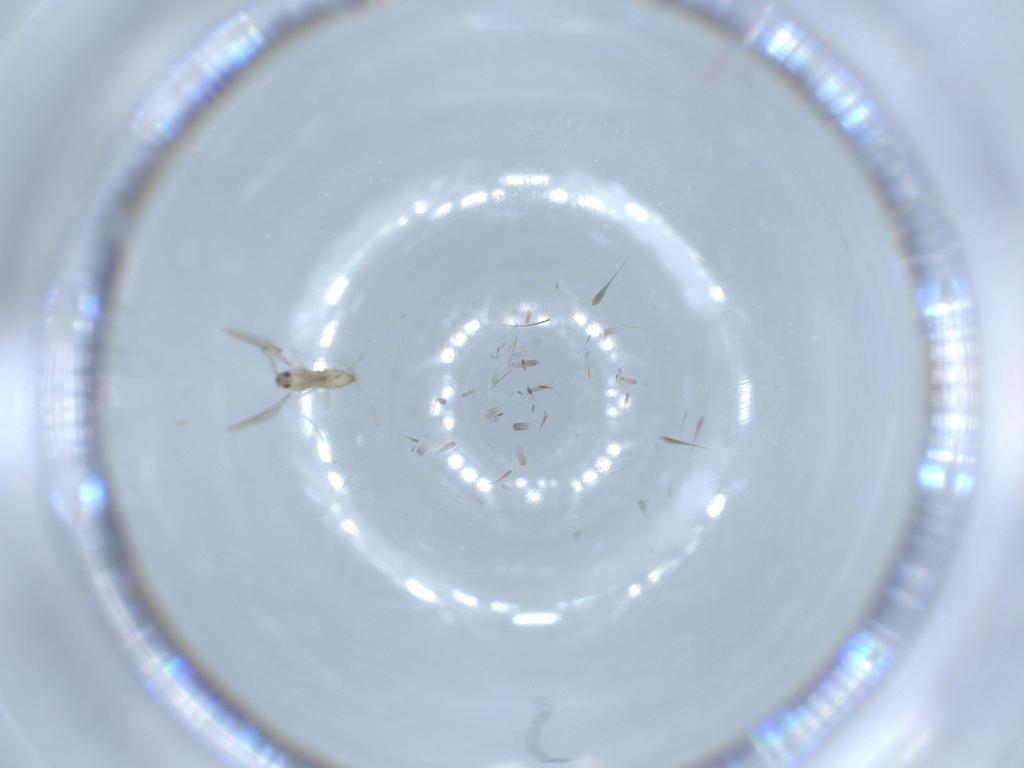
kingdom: Animalia
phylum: Arthropoda
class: Insecta
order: Diptera
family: Cecidomyiidae
